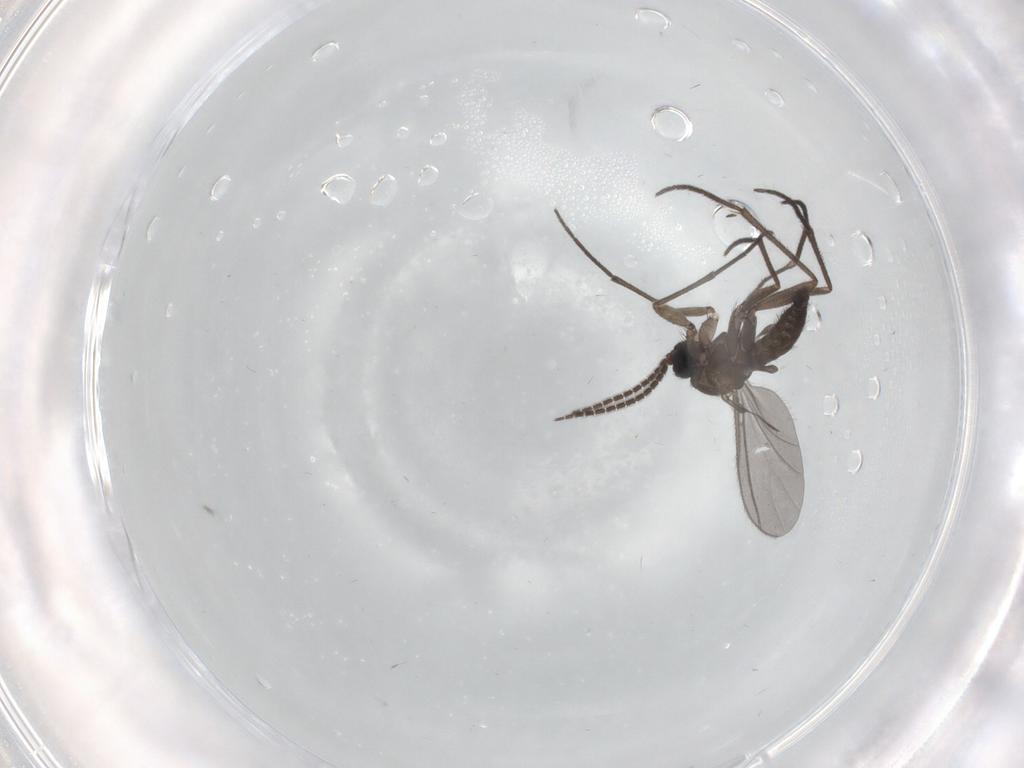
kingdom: Animalia
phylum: Arthropoda
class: Insecta
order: Diptera
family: Sciaridae
